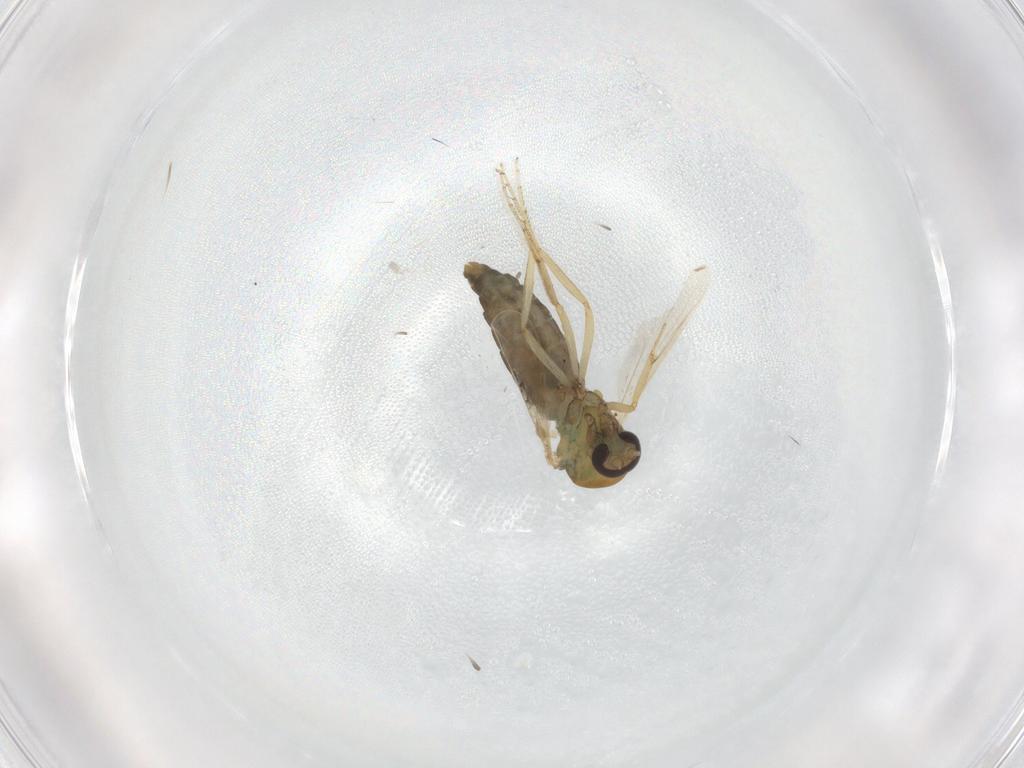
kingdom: Animalia
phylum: Arthropoda
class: Insecta
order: Diptera
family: Ceratopogonidae
